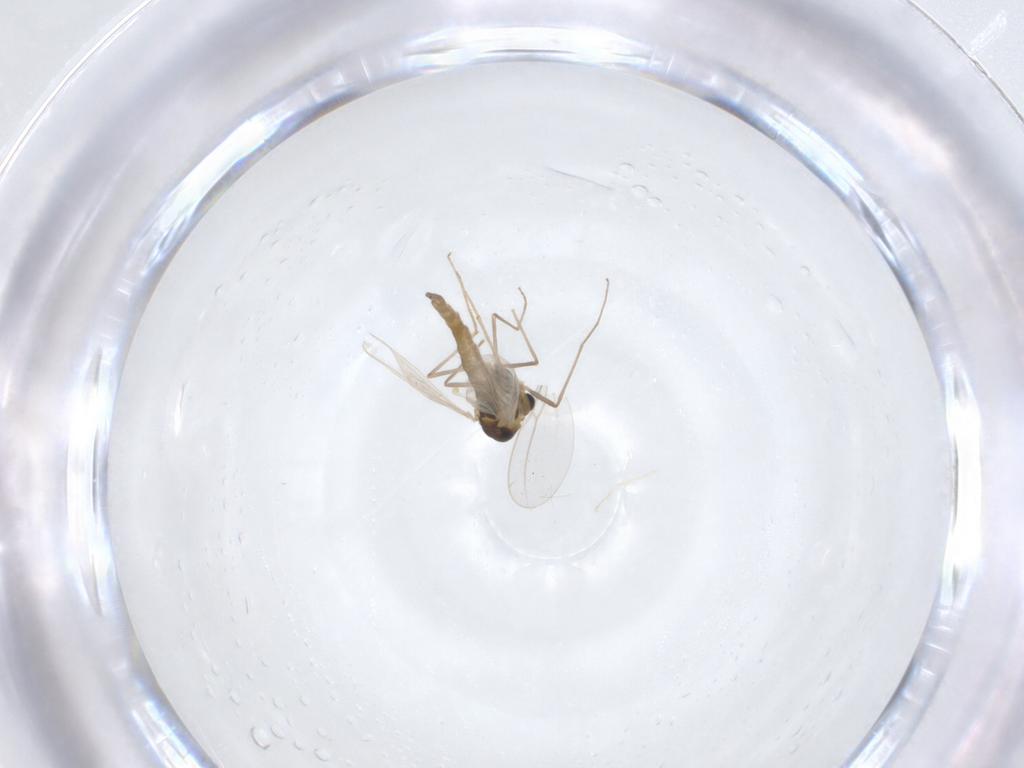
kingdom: Animalia
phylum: Arthropoda
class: Insecta
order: Diptera
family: Chironomidae
